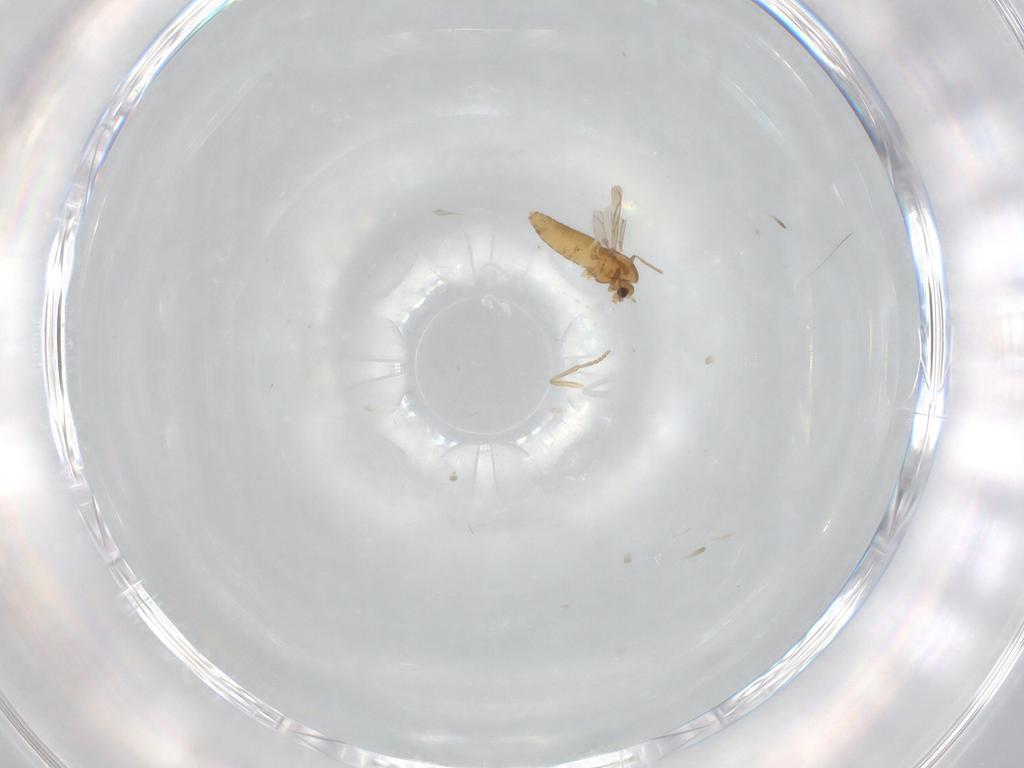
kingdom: Animalia
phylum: Arthropoda
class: Insecta
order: Diptera
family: Chironomidae
